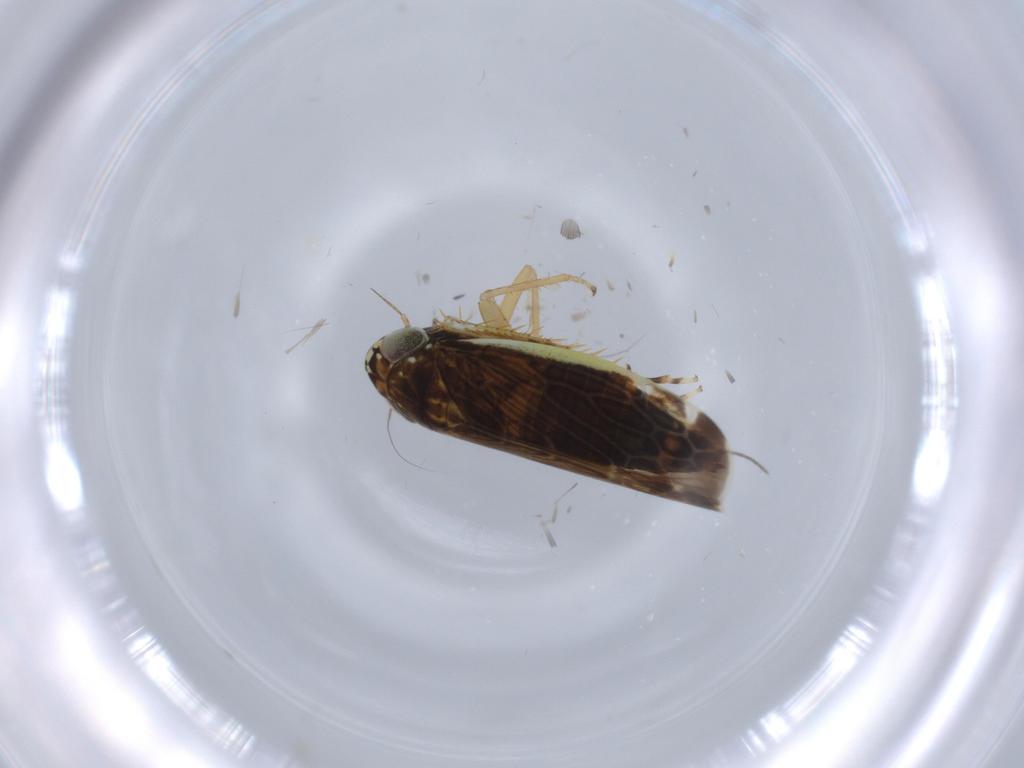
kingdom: Animalia
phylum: Arthropoda
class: Insecta
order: Hemiptera
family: Cicadellidae
